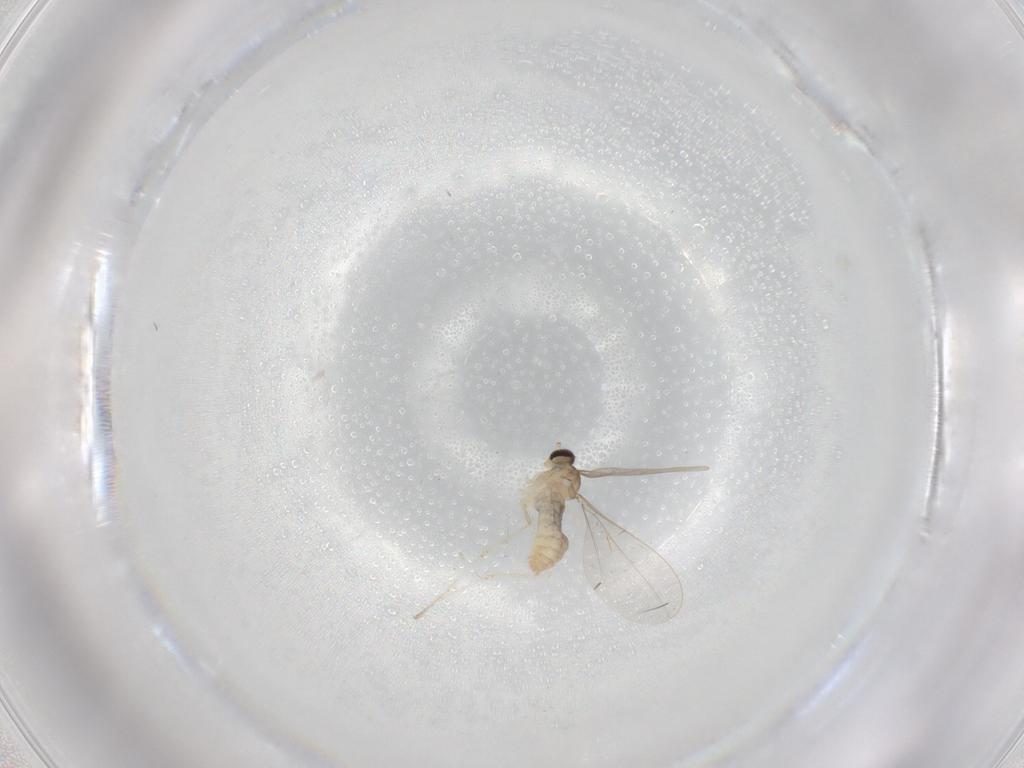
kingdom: Animalia
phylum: Arthropoda
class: Insecta
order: Diptera
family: Cecidomyiidae
